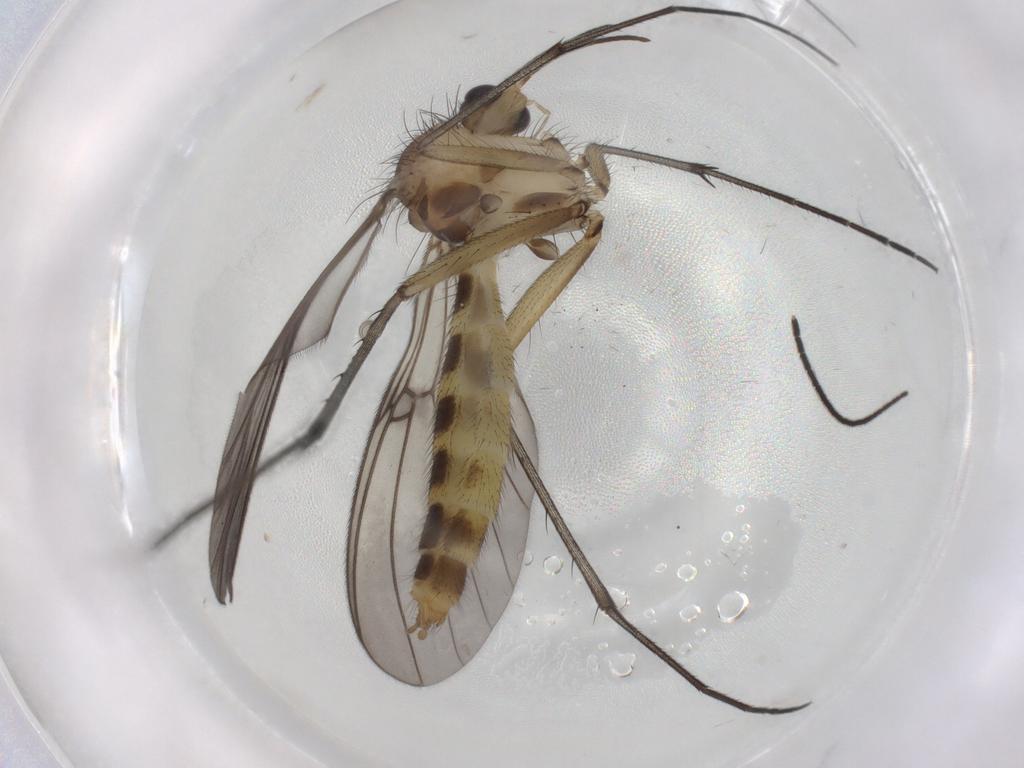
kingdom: Animalia
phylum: Arthropoda
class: Insecta
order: Diptera
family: Mycetophilidae
